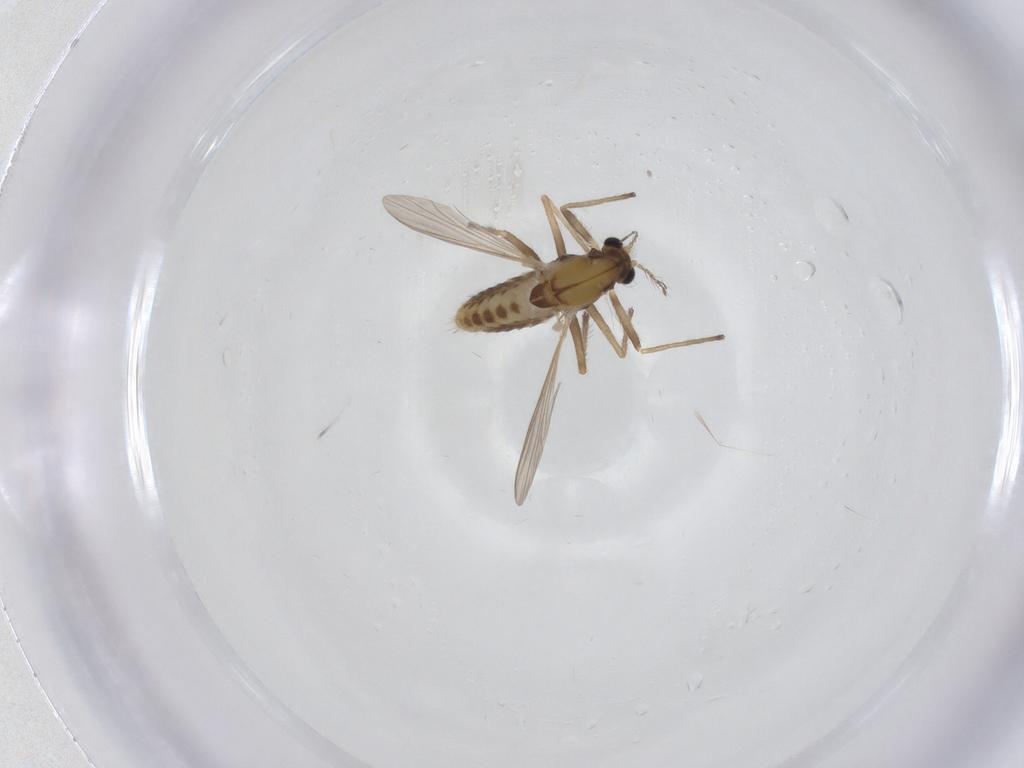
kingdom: Animalia
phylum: Arthropoda
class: Insecta
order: Diptera
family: Chironomidae
